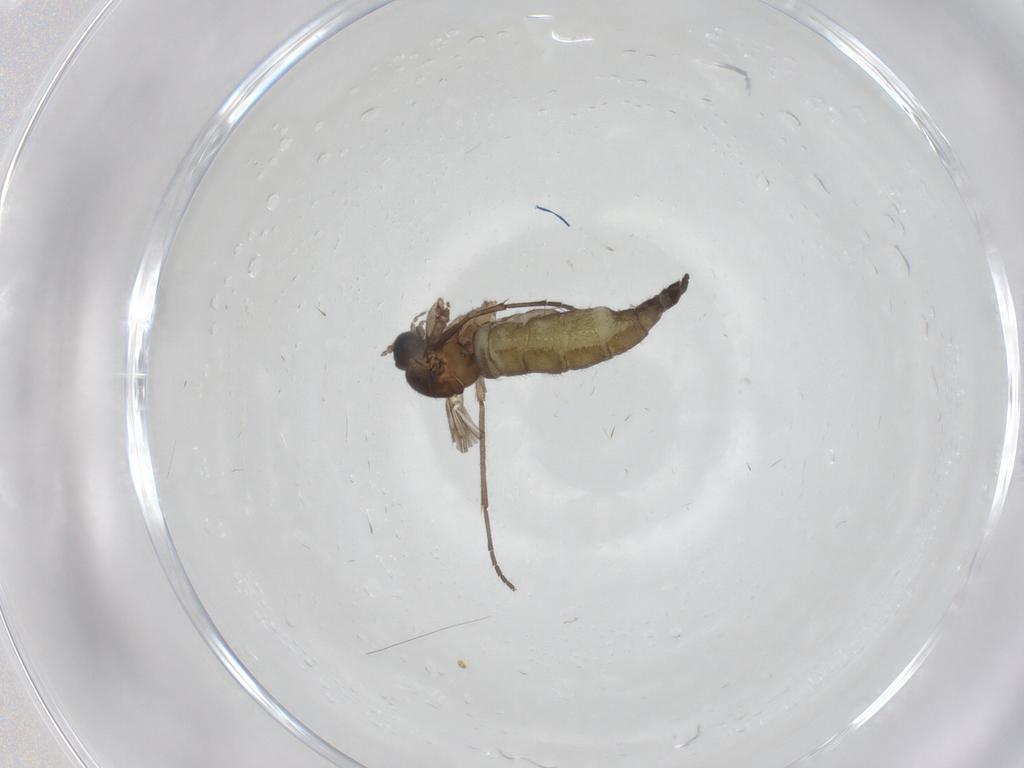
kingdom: Animalia
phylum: Arthropoda
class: Insecta
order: Diptera
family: Sciaridae
